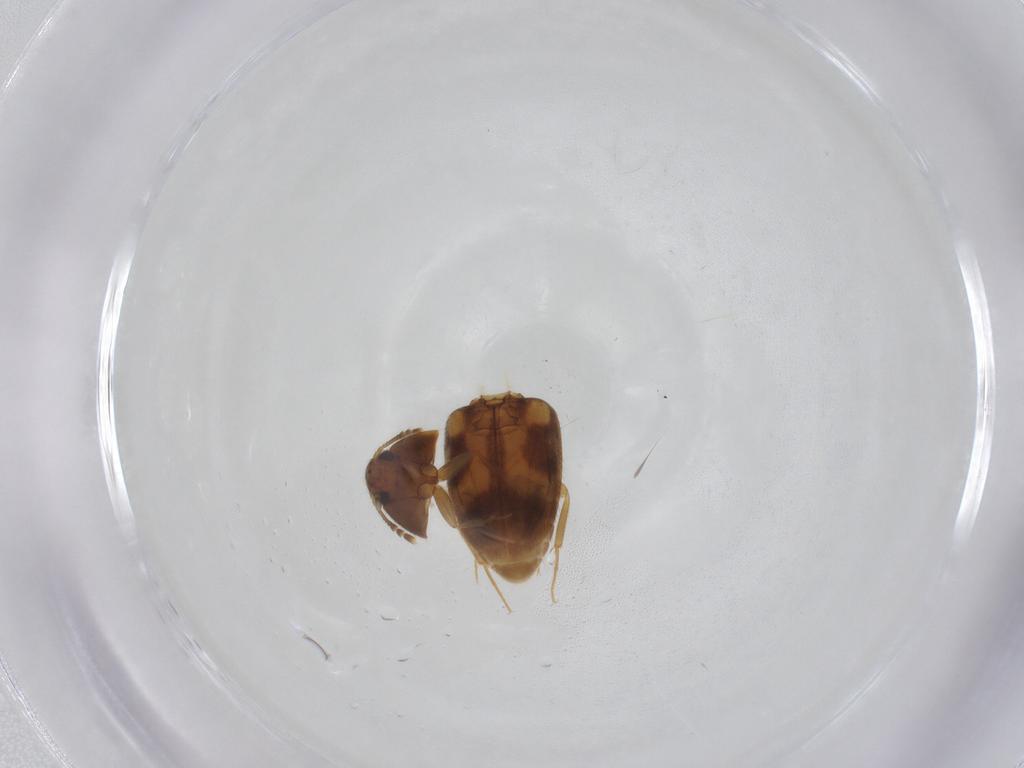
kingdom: Animalia
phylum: Arthropoda
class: Insecta
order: Coleoptera
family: Mycetophagidae
